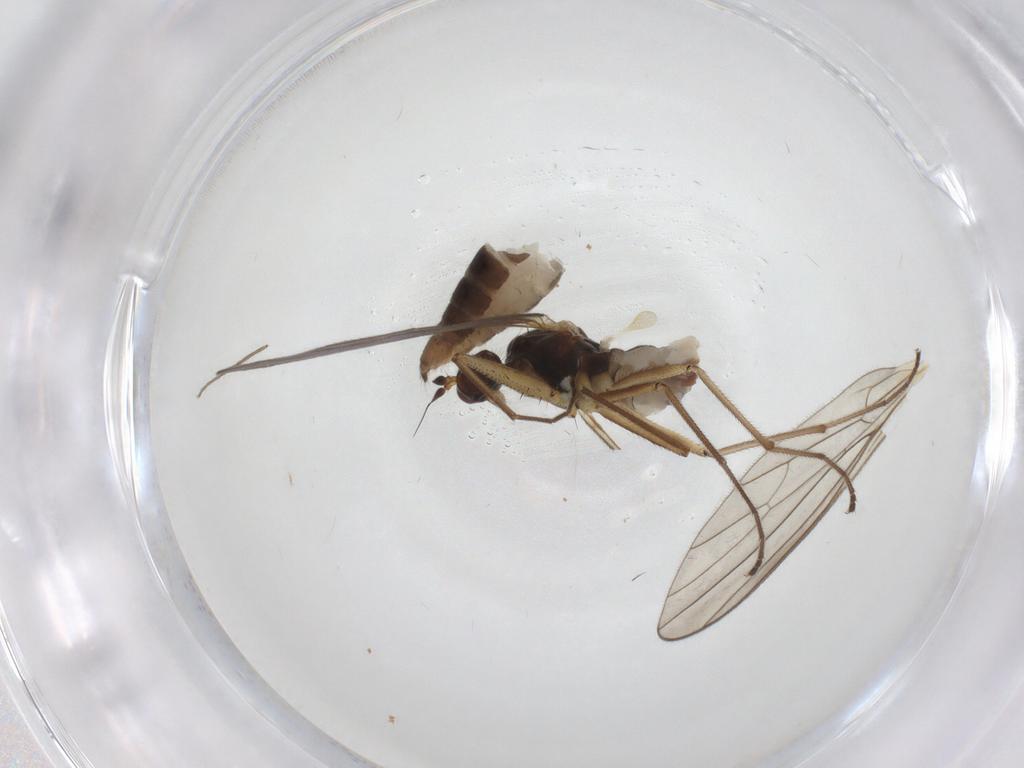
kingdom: Animalia
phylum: Arthropoda
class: Insecta
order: Diptera
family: Empididae
